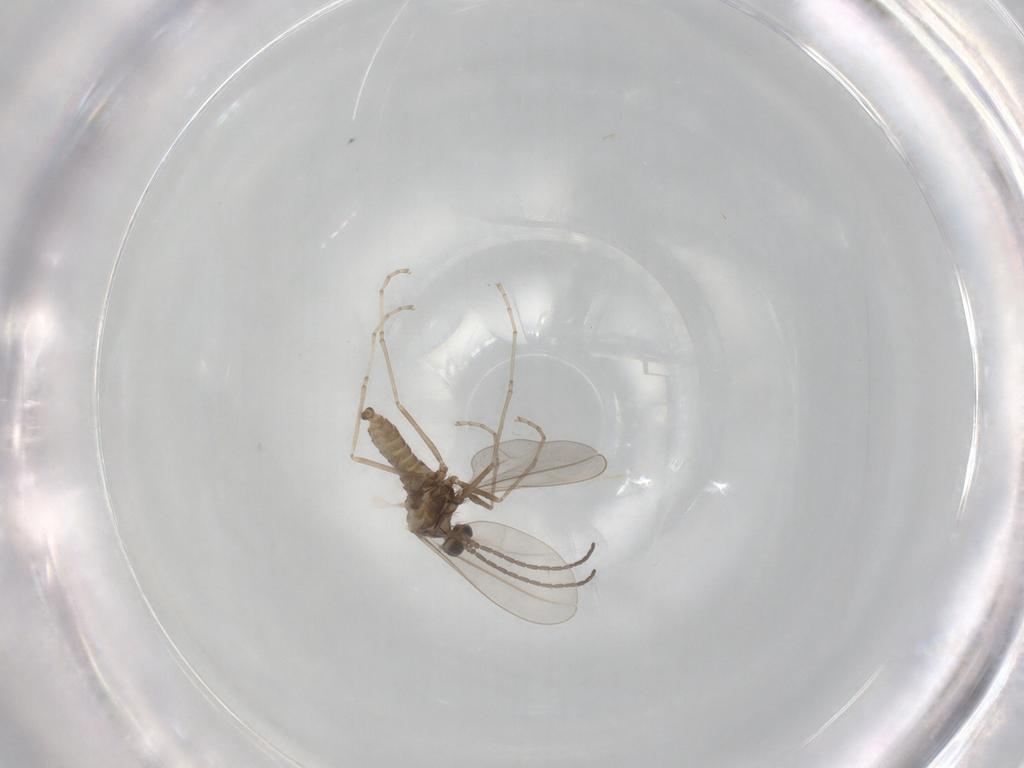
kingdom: Animalia
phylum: Arthropoda
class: Insecta
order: Diptera
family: Cecidomyiidae
